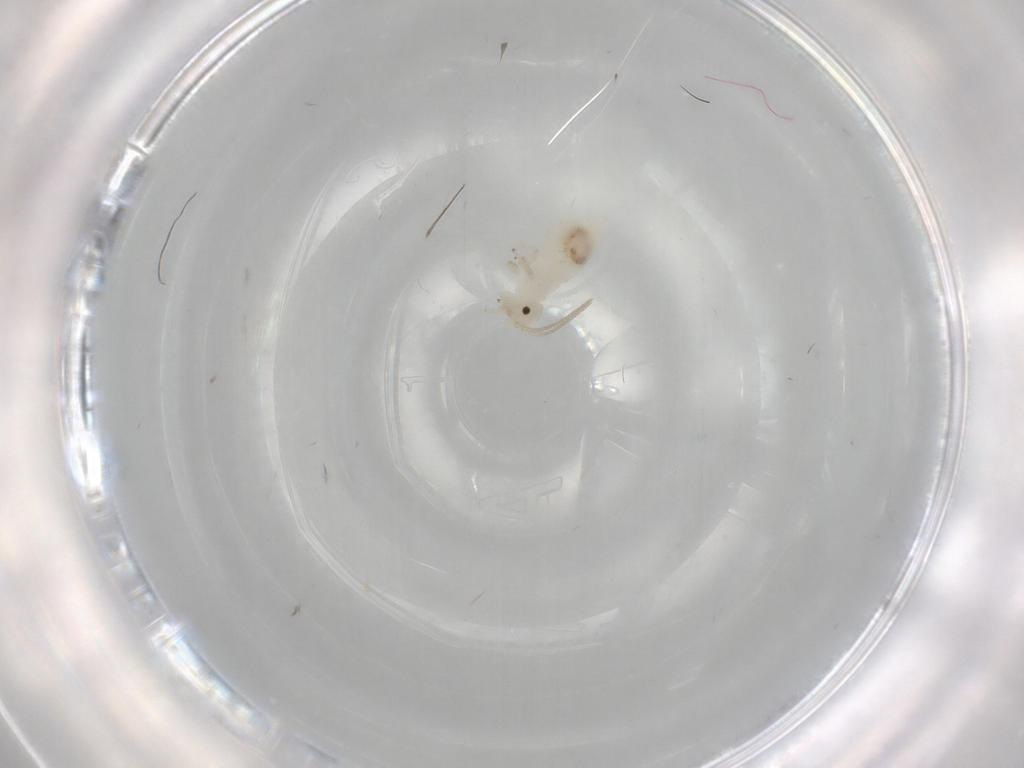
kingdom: Animalia
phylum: Arthropoda
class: Insecta
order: Psocodea
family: Caeciliusidae
